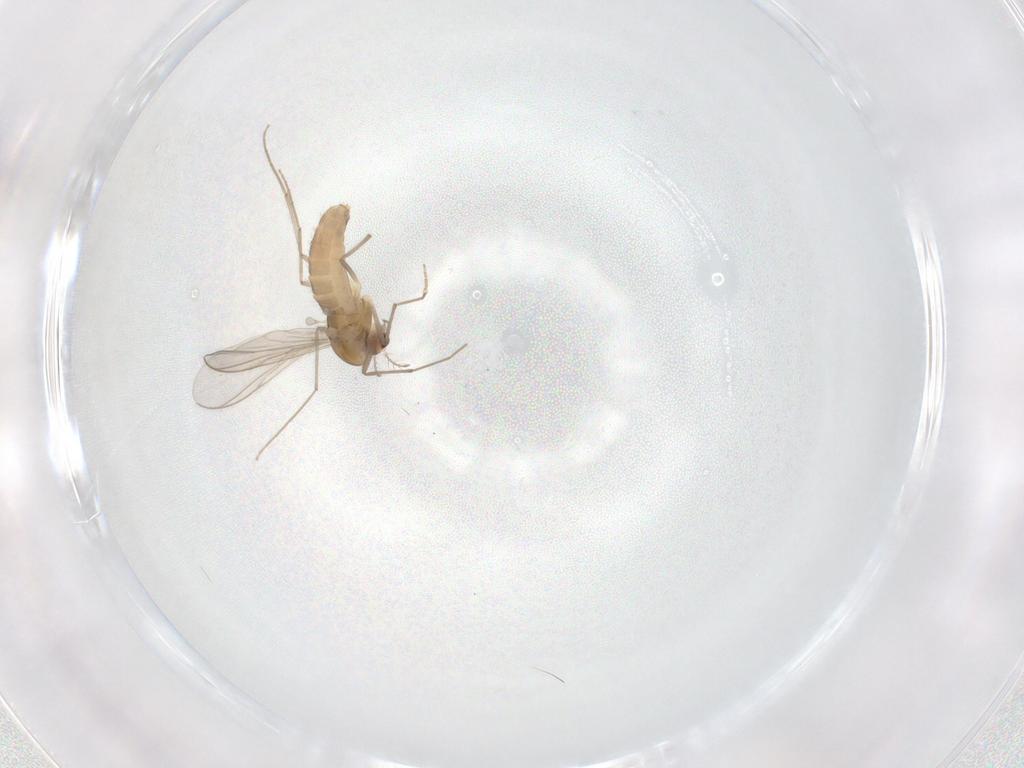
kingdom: Animalia
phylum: Arthropoda
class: Insecta
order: Diptera
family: Chironomidae
